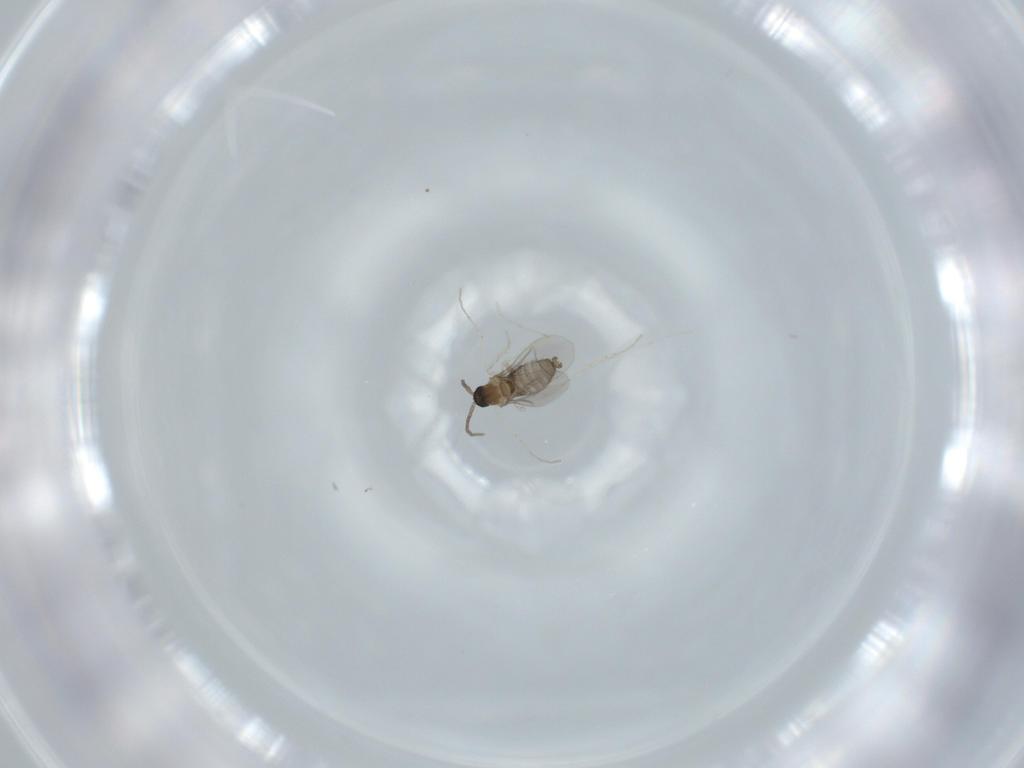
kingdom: Animalia
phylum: Arthropoda
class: Insecta
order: Diptera
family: Cecidomyiidae
